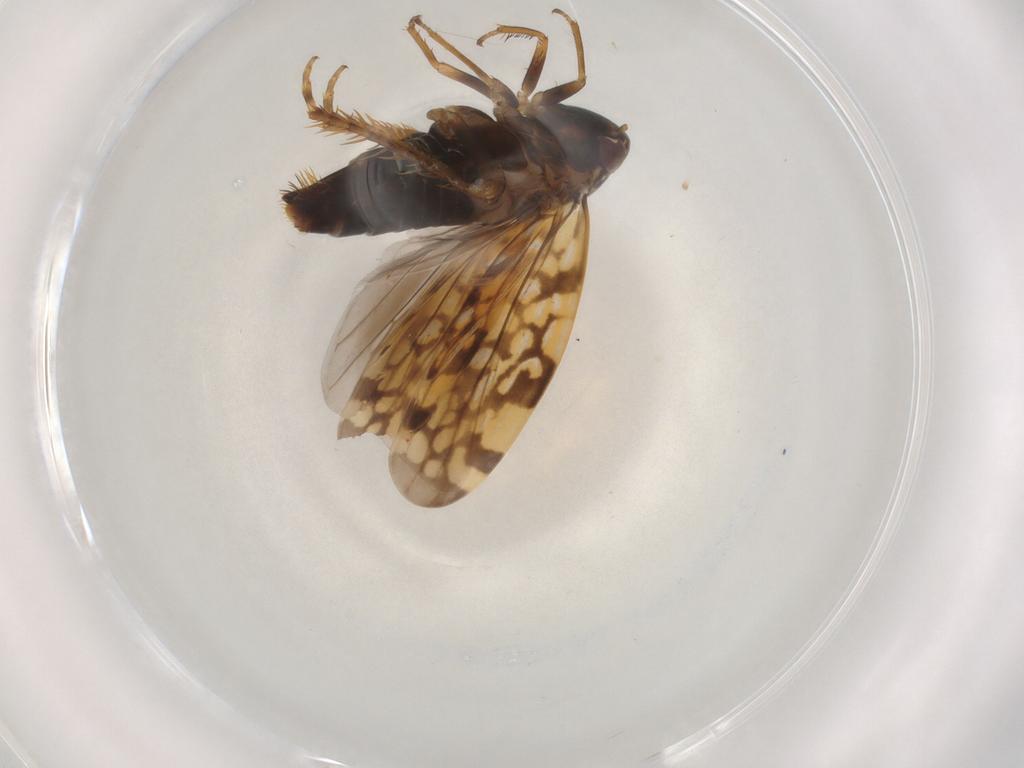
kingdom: Animalia
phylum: Arthropoda
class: Insecta
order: Hemiptera
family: Cicadellidae
